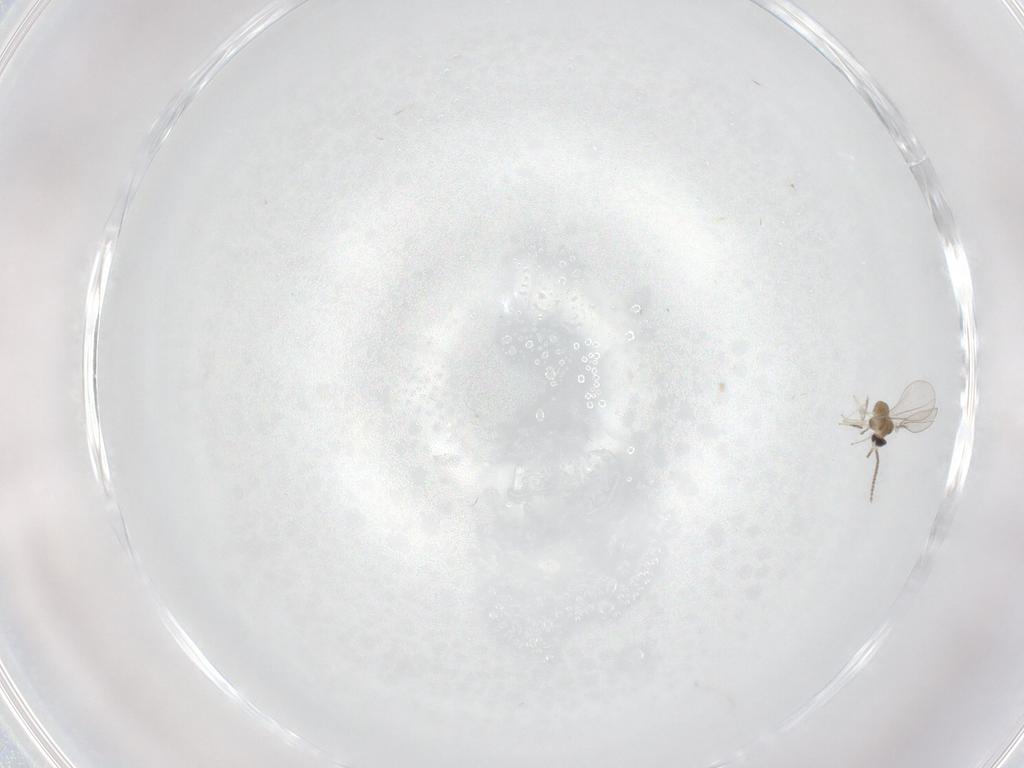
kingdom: Animalia
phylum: Arthropoda
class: Insecta
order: Diptera
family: Cecidomyiidae
